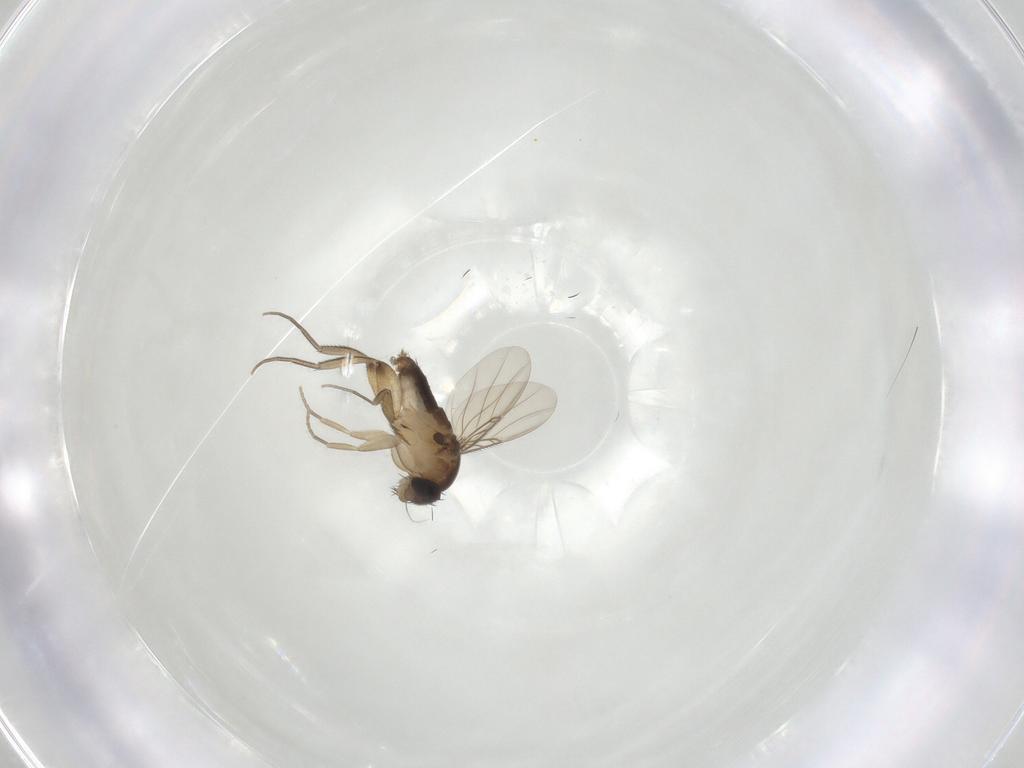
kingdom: Animalia
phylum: Arthropoda
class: Insecta
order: Diptera
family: Phoridae
